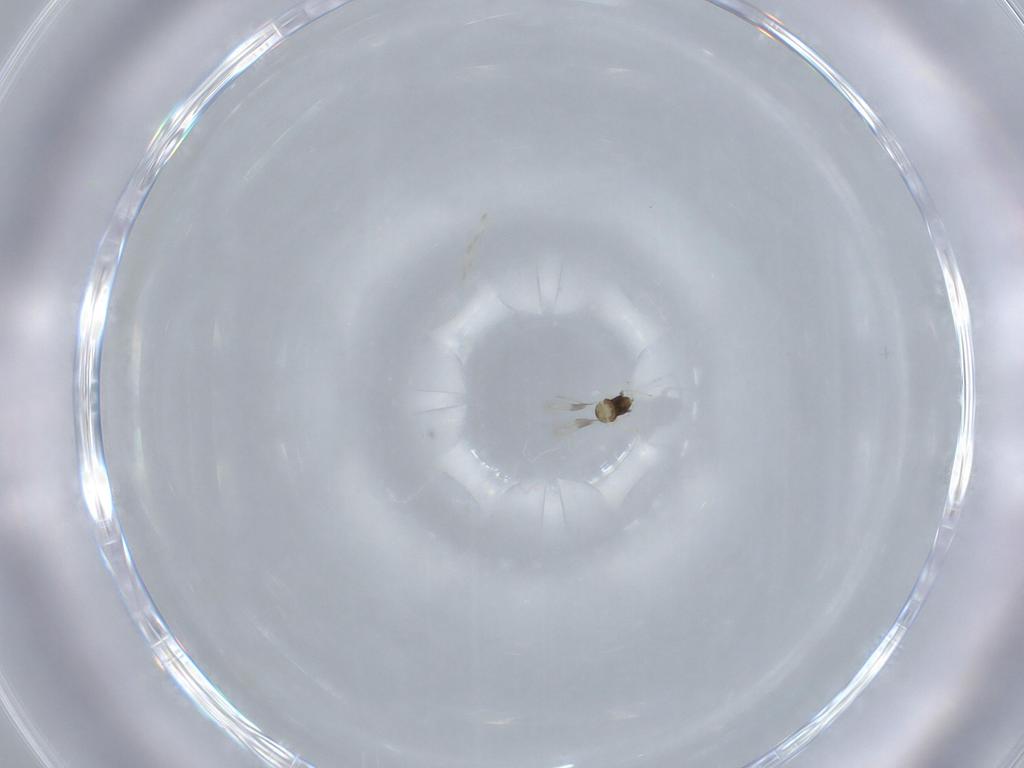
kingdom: Animalia
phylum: Arthropoda
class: Insecta
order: Hymenoptera
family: Aphelinidae
